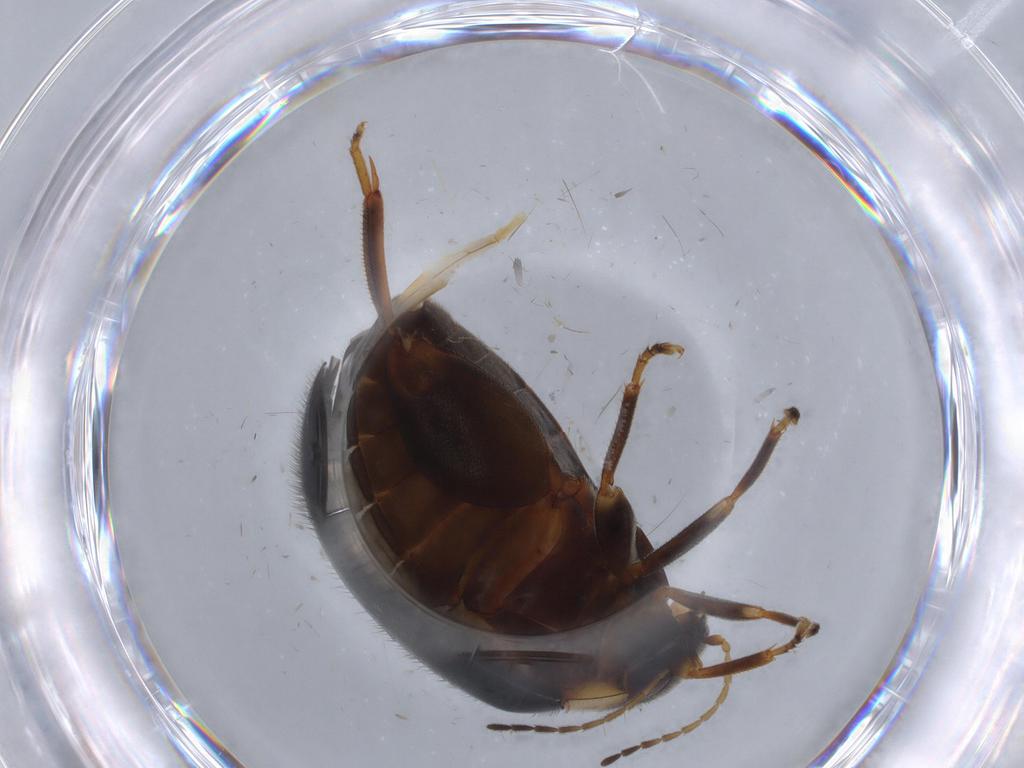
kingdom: Animalia
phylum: Arthropoda
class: Insecta
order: Coleoptera
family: Scirtidae
